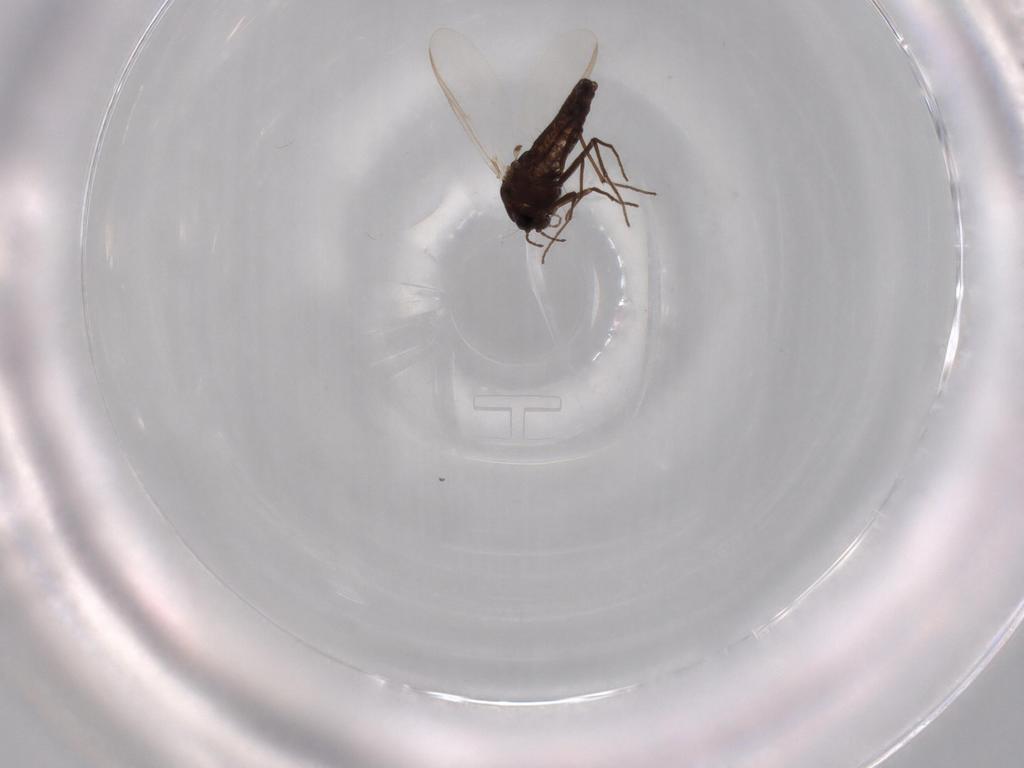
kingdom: Animalia
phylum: Arthropoda
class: Insecta
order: Diptera
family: Chironomidae
